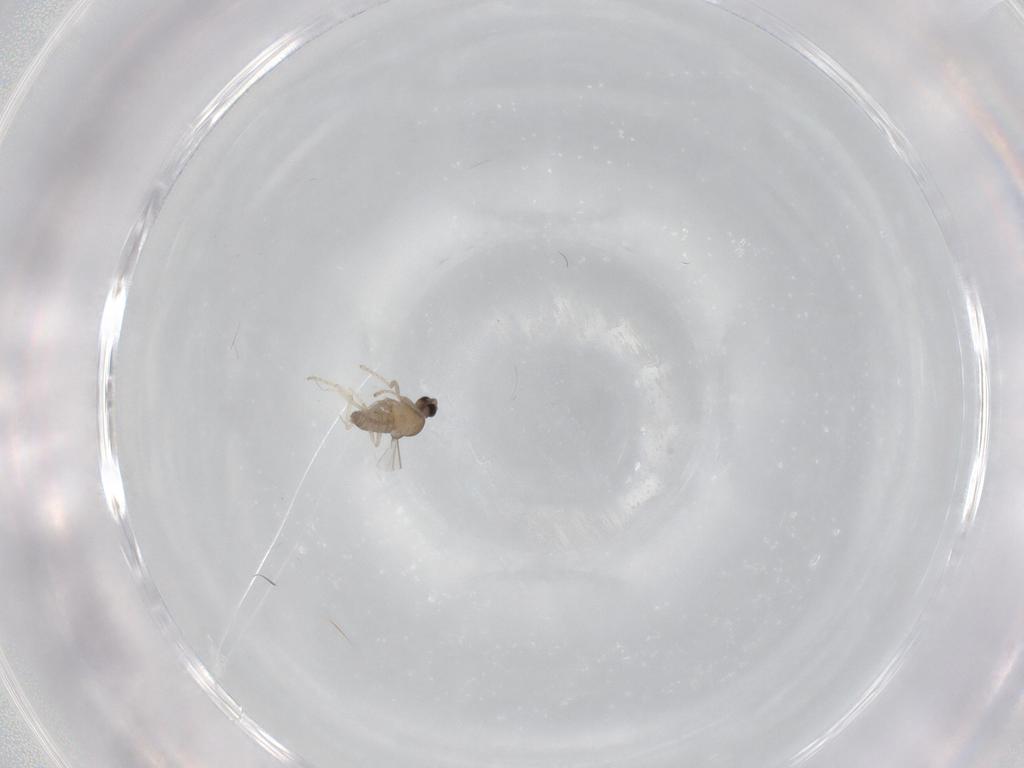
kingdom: Animalia
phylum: Arthropoda
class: Insecta
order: Diptera
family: Cecidomyiidae
